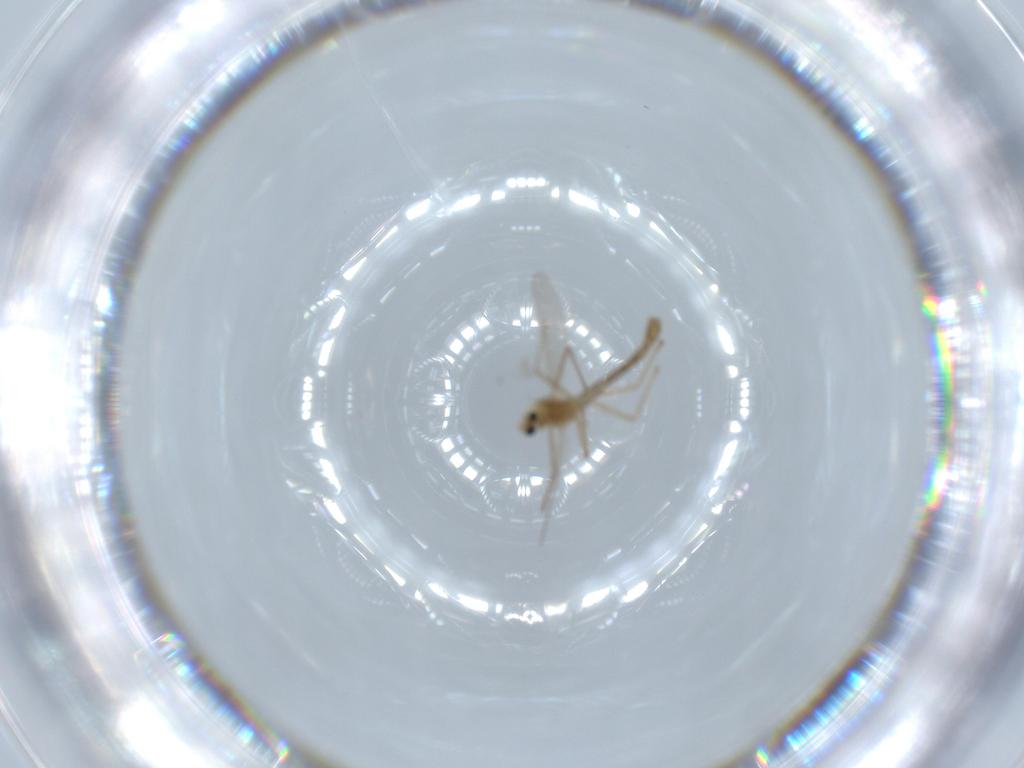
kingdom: Animalia
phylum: Arthropoda
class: Insecta
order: Diptera
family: Chironomidae
